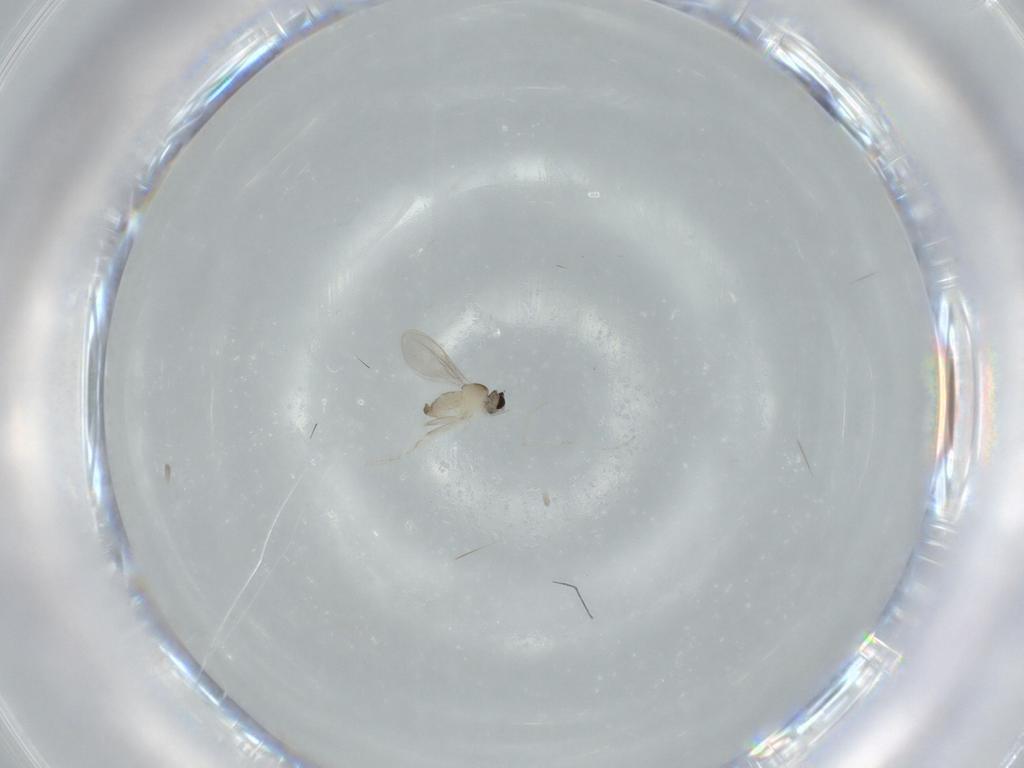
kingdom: Animalia
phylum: Arthropoda
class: Insecta
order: Diptera
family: Cecidomyiidae
